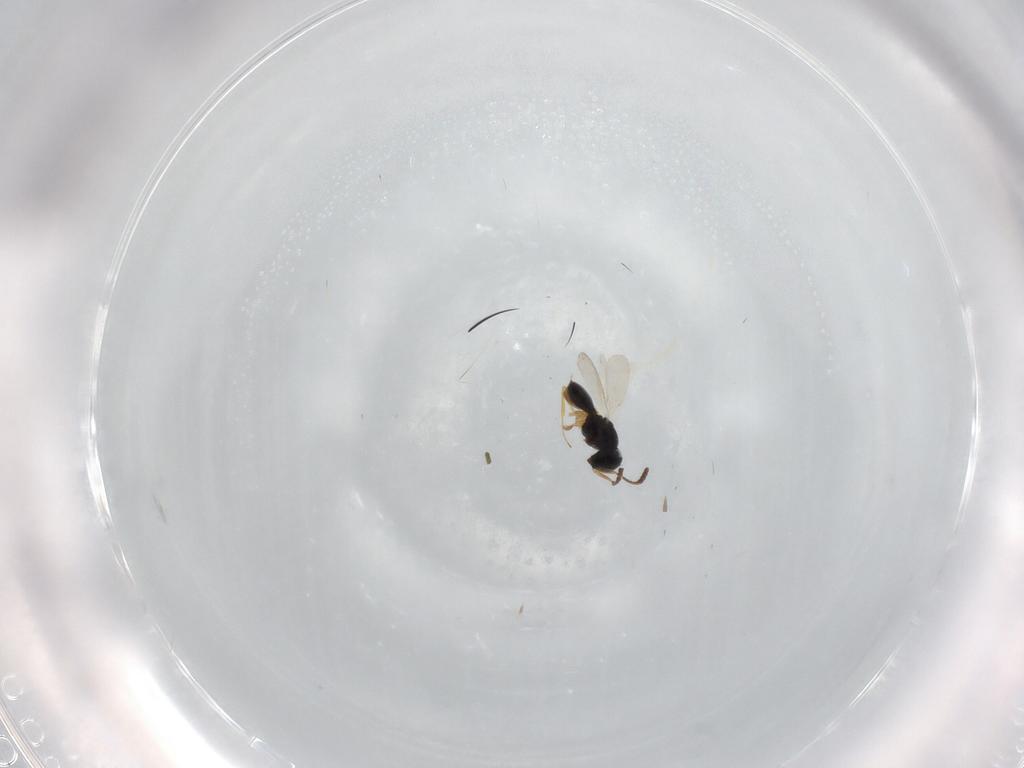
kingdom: Animalia
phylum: Arthropoda
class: Insecta
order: Hymenoptera
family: Scelionidae
